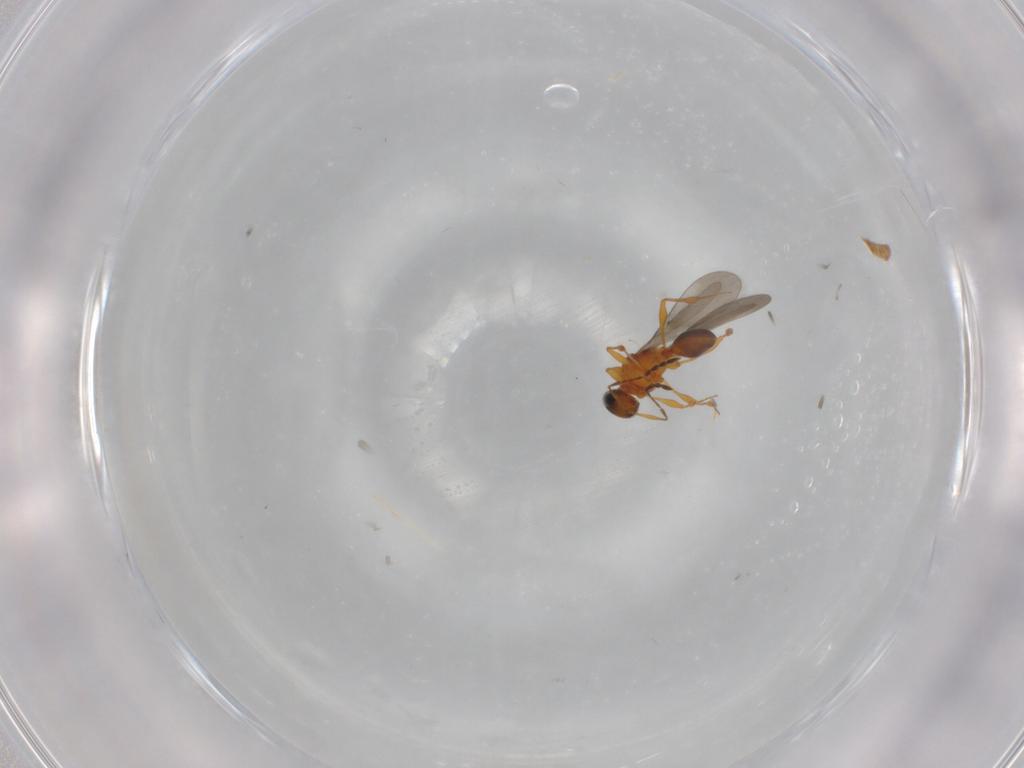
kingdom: Animalia
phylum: Arthropoda
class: Insecta
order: Hymenoptera
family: Platygastridae
